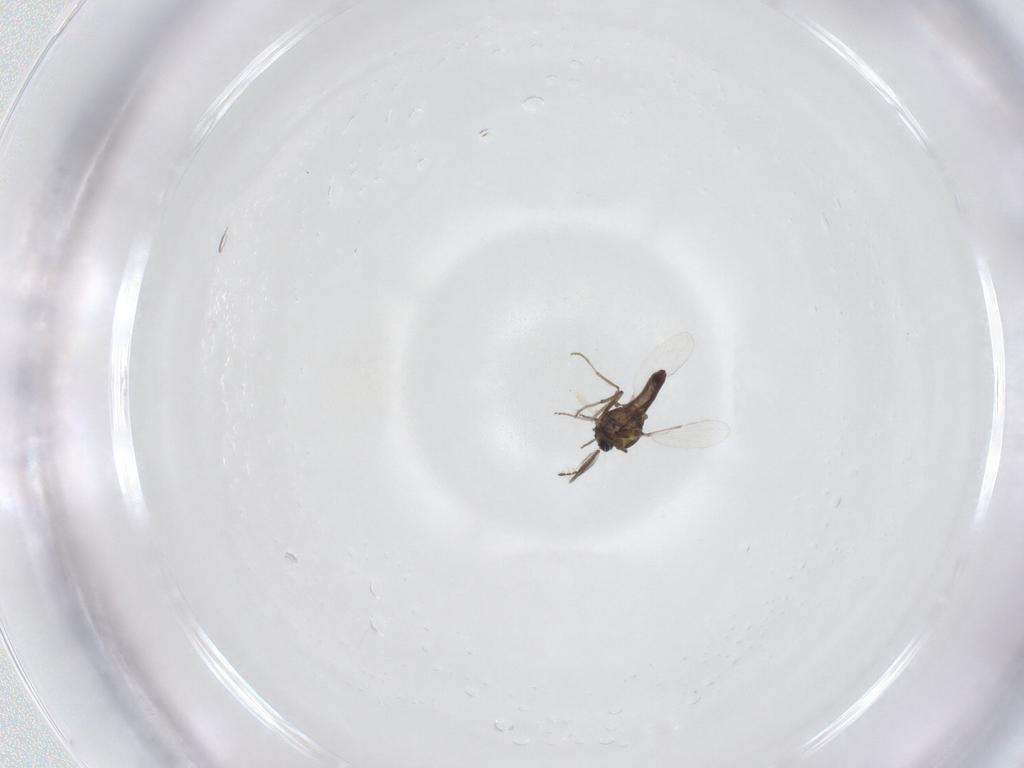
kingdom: Animalia
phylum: Arthropoda
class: Insecta
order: Diptera
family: Ceratopogonidae
